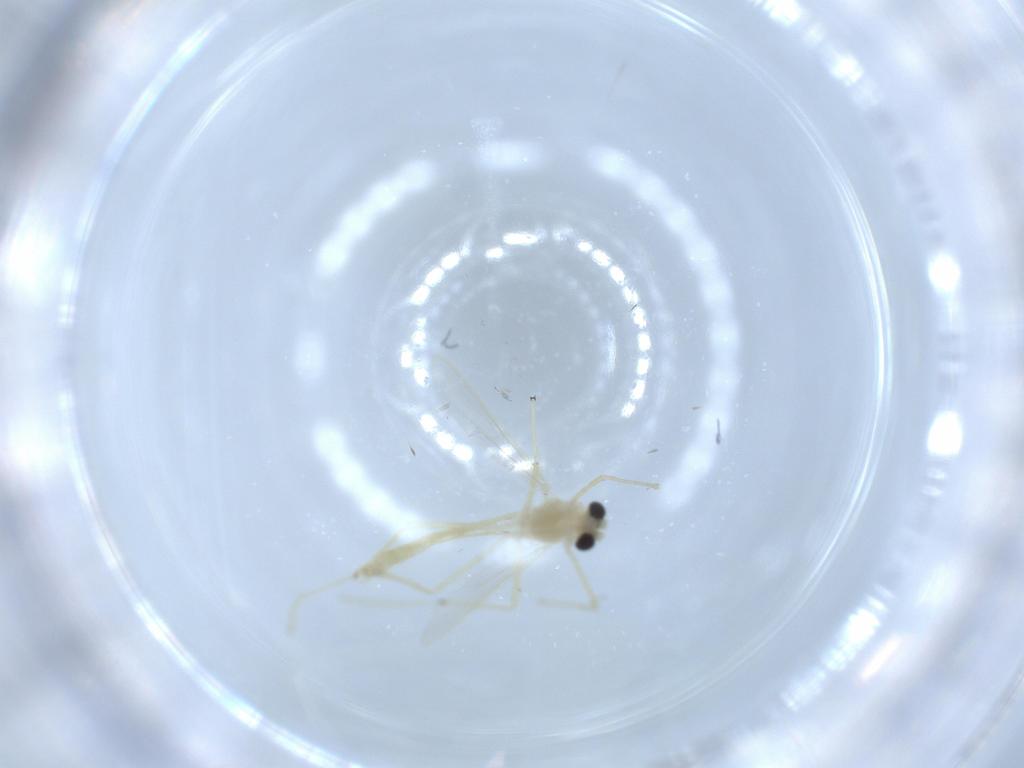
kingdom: Animalia
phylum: Arthropoda
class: Insecta
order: Diptera
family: Chironomidae
